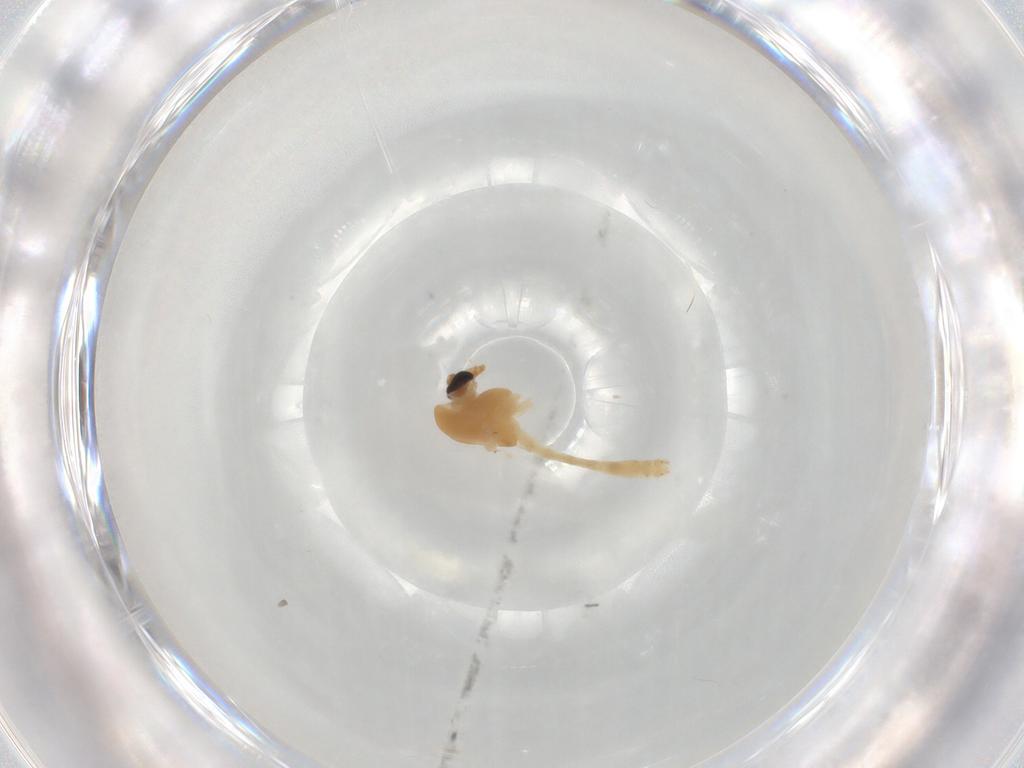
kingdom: Animalia
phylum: Arthropoda
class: Insecta
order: Diptera
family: Chironomidae
